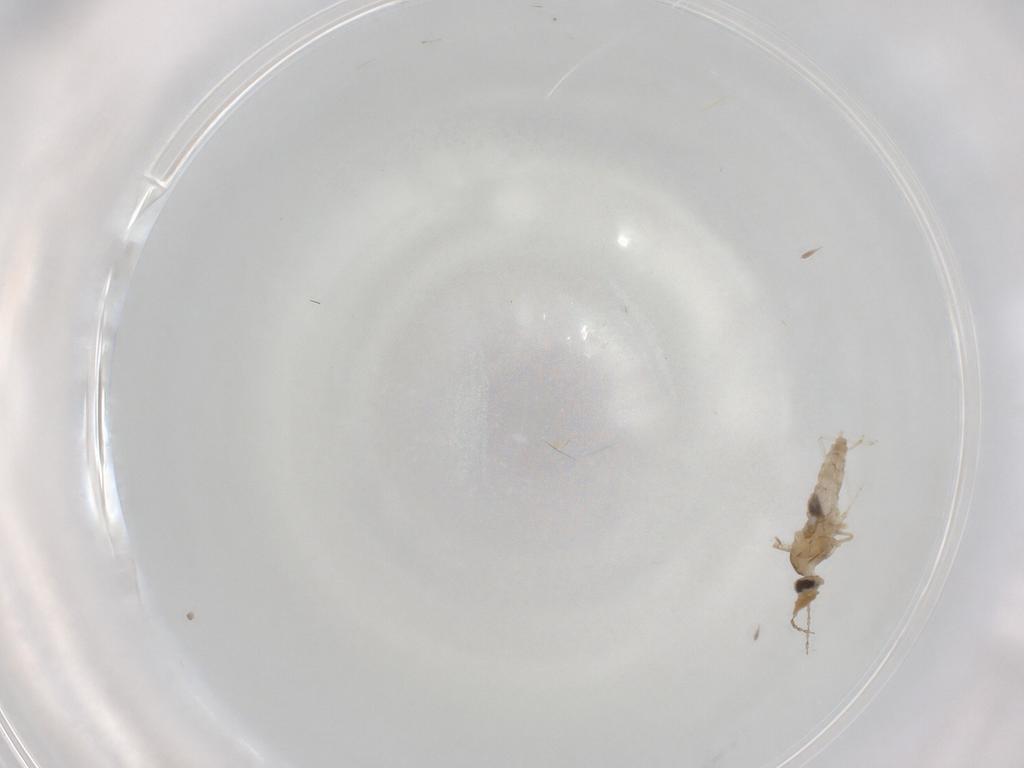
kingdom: Animalia
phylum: Arthropoda
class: Insecta
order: Diptera
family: Cecidomyiidae
